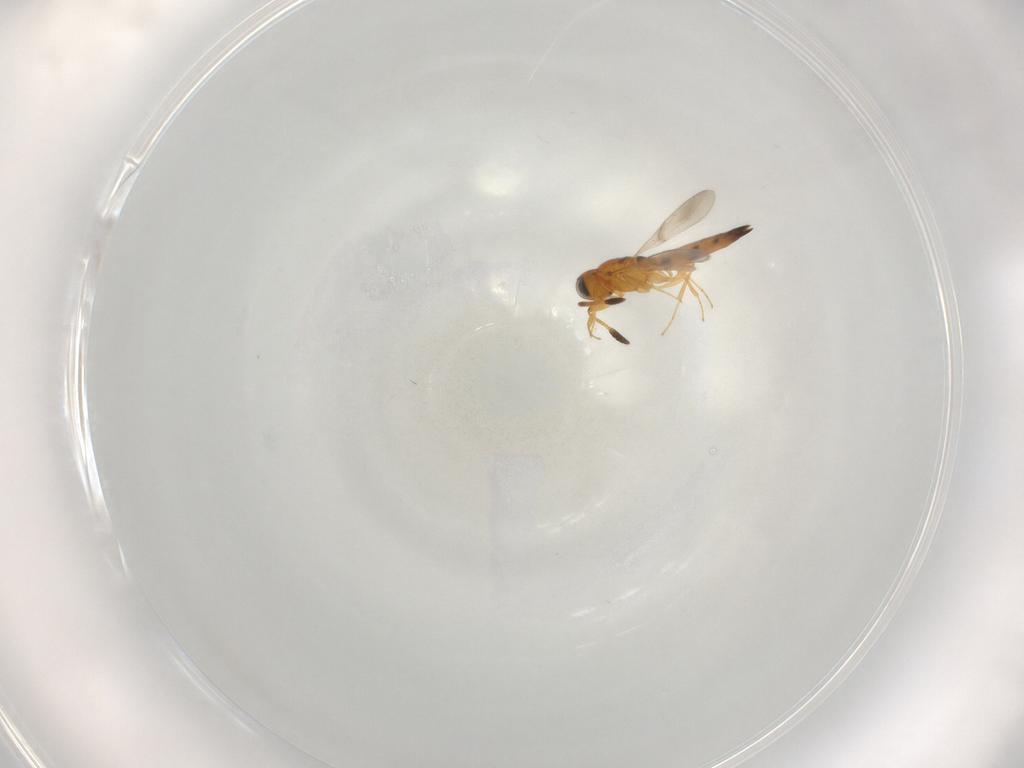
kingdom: Animalia
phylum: Arthropoda
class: Insecta
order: Hymenoptera
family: Scelionidae
